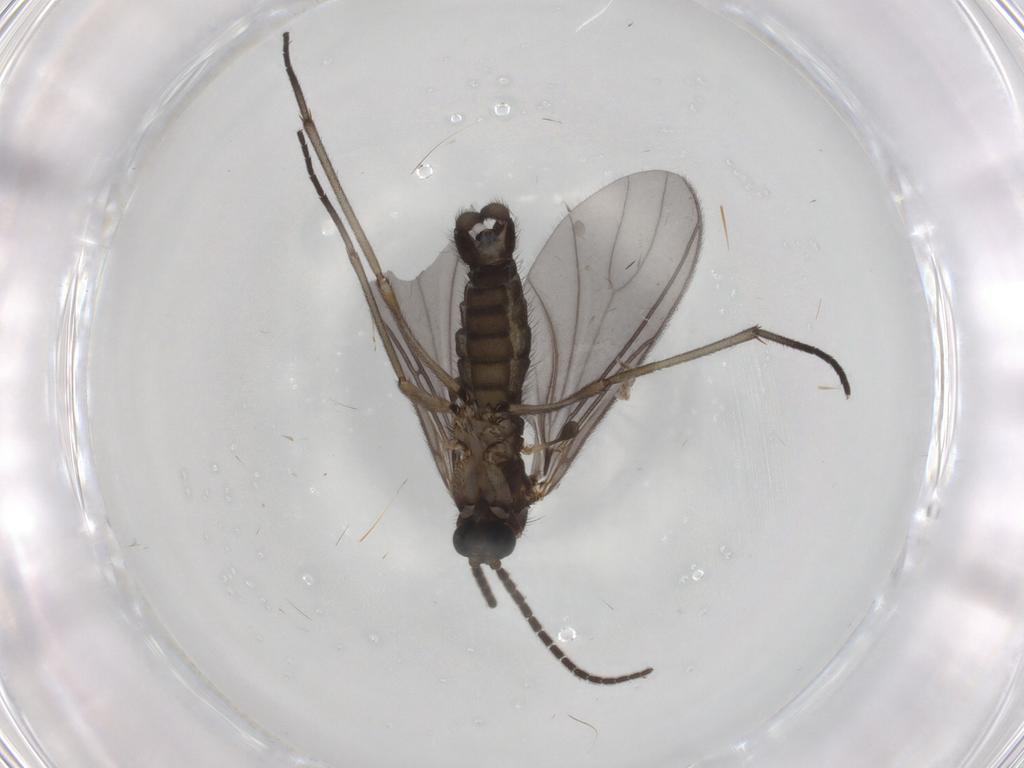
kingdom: Animalia
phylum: Arthropoda
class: Insecta
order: Diptera
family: Sciaridae
